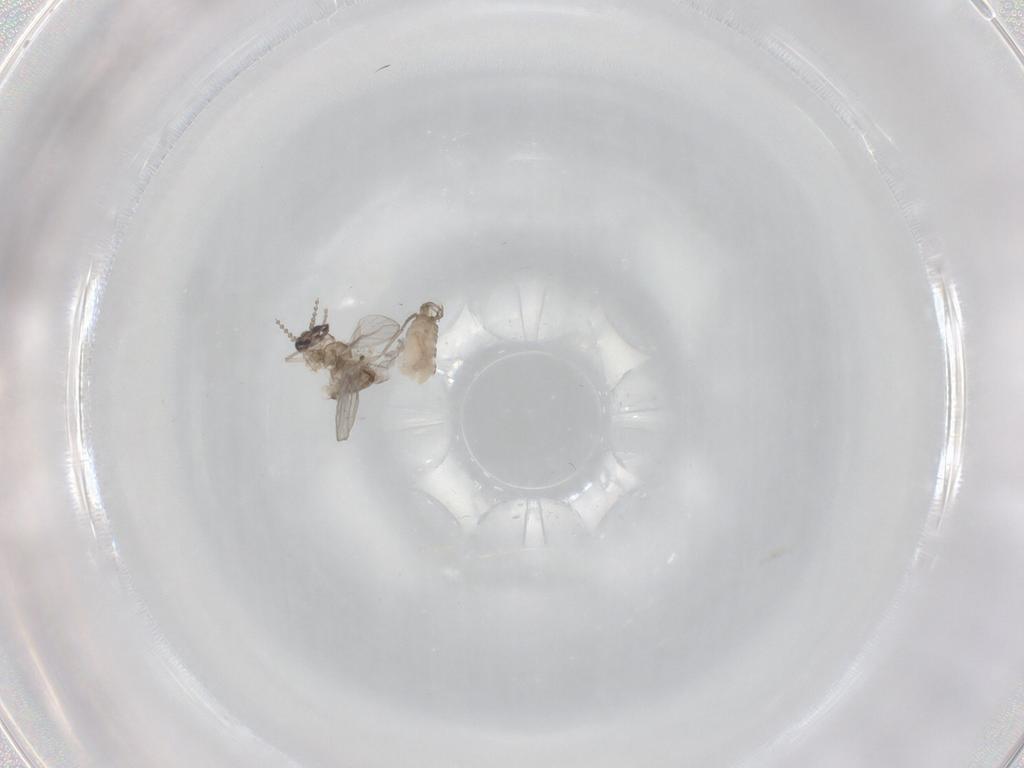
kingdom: Animalia
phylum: Arthropoda
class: Insecta
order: Diptera
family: Psychodidae
